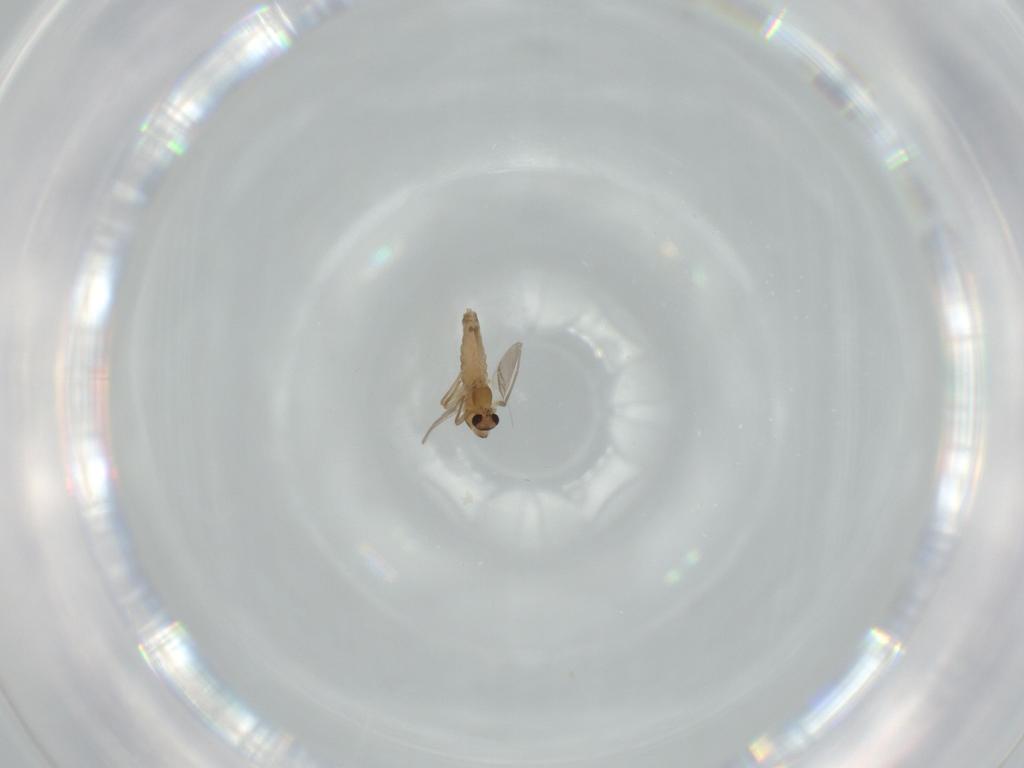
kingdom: Animalia
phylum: Arthropoda
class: Insecta
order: Diptera
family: Chironomidae
